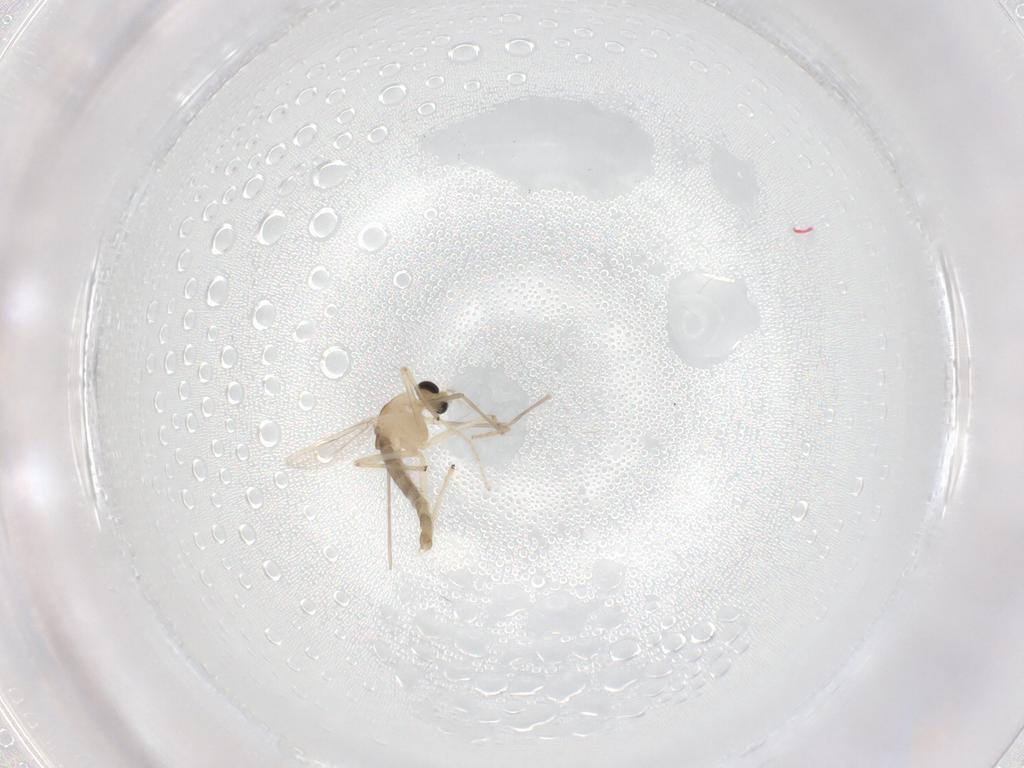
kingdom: Animalia
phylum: Arthropoda
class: Insecta
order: Diptera
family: Chironomidae
